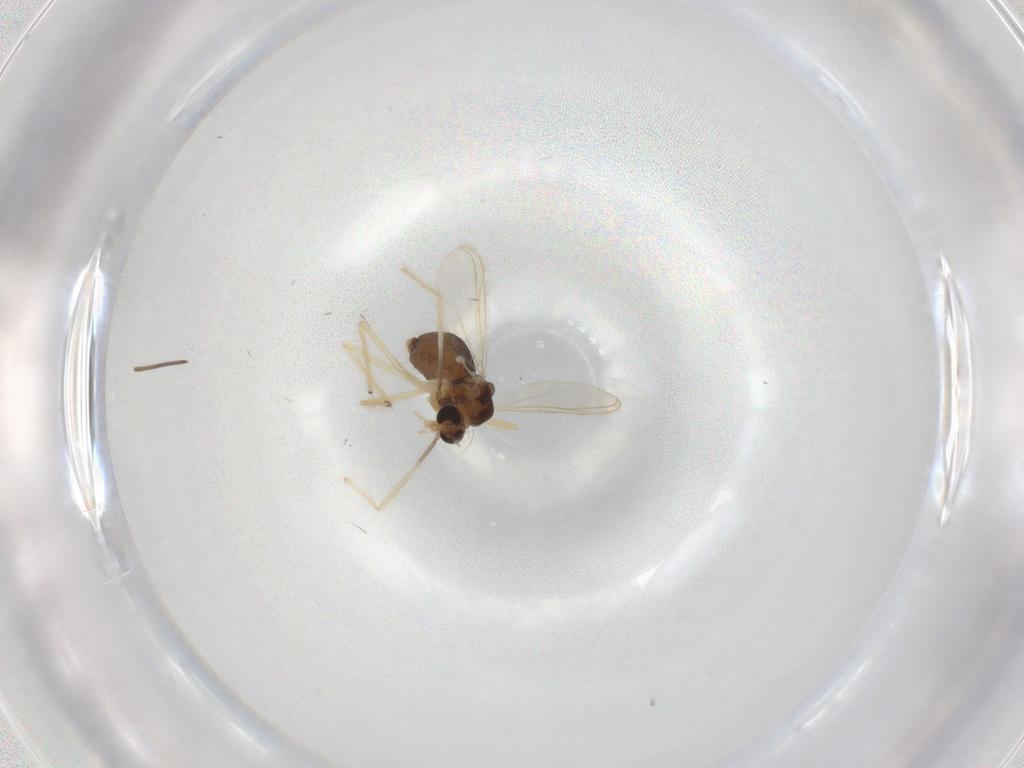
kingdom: Animalia
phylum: Arthropoda
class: Insecta
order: Diptera
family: Chironomidae
